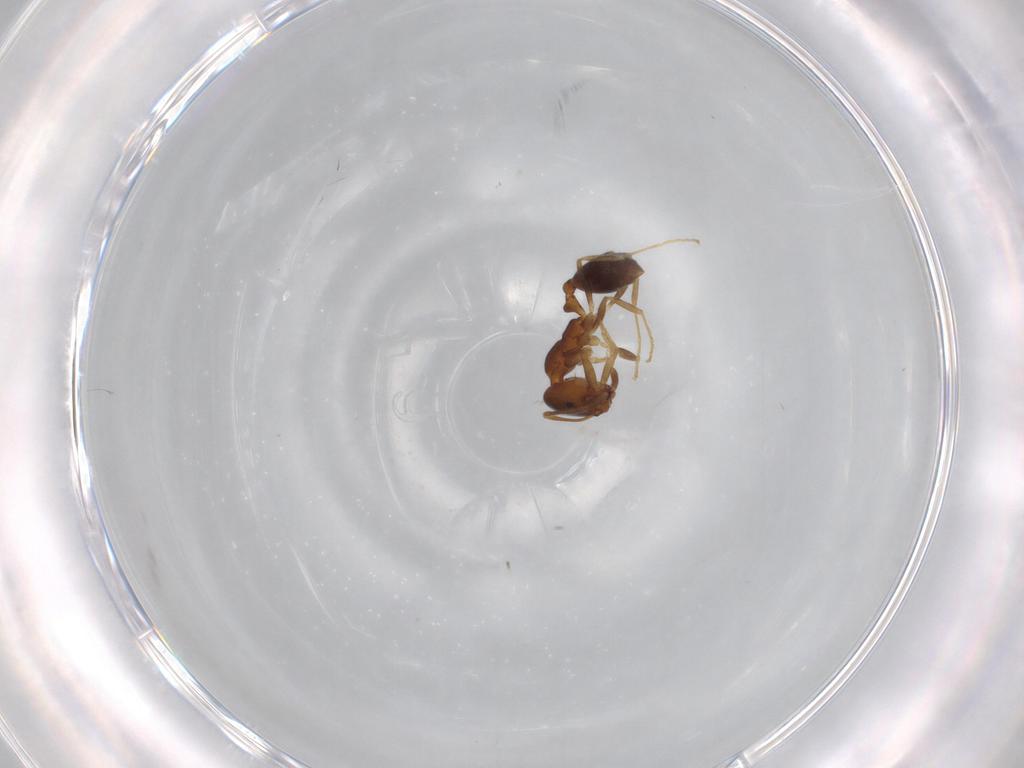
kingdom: Animalia
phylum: Arthropoda
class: Insecta
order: Hymenoptera
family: Formicidae
